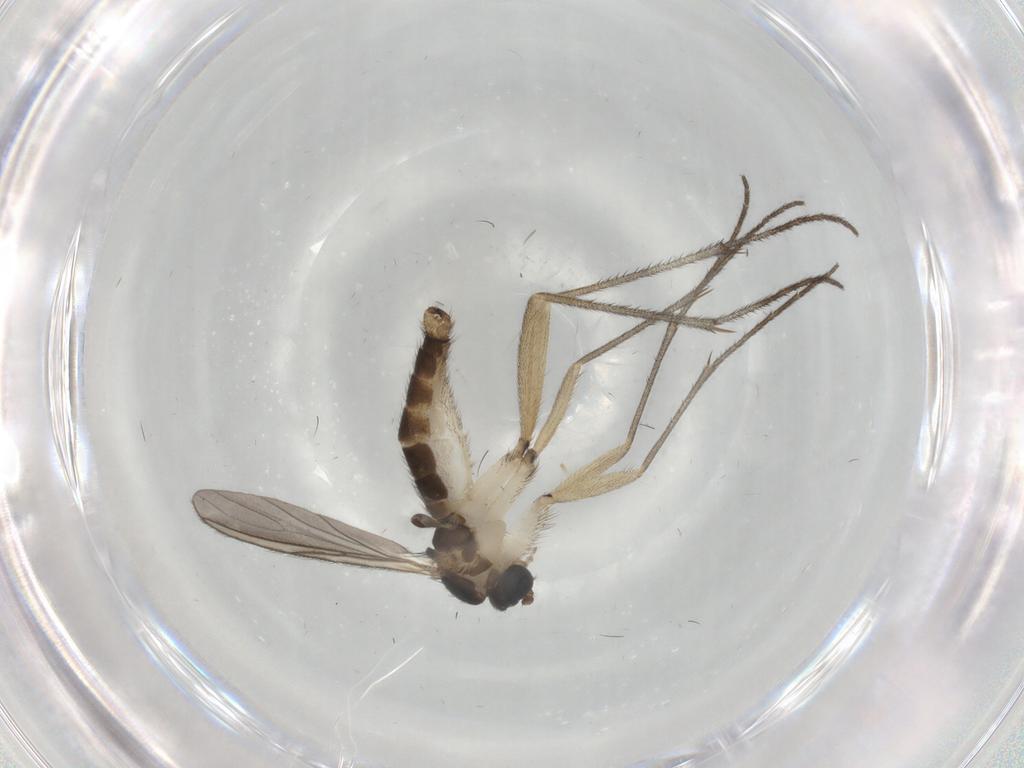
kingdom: Animalia
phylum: Arthropoda
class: Insecta
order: Diptera
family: Sciaridae
